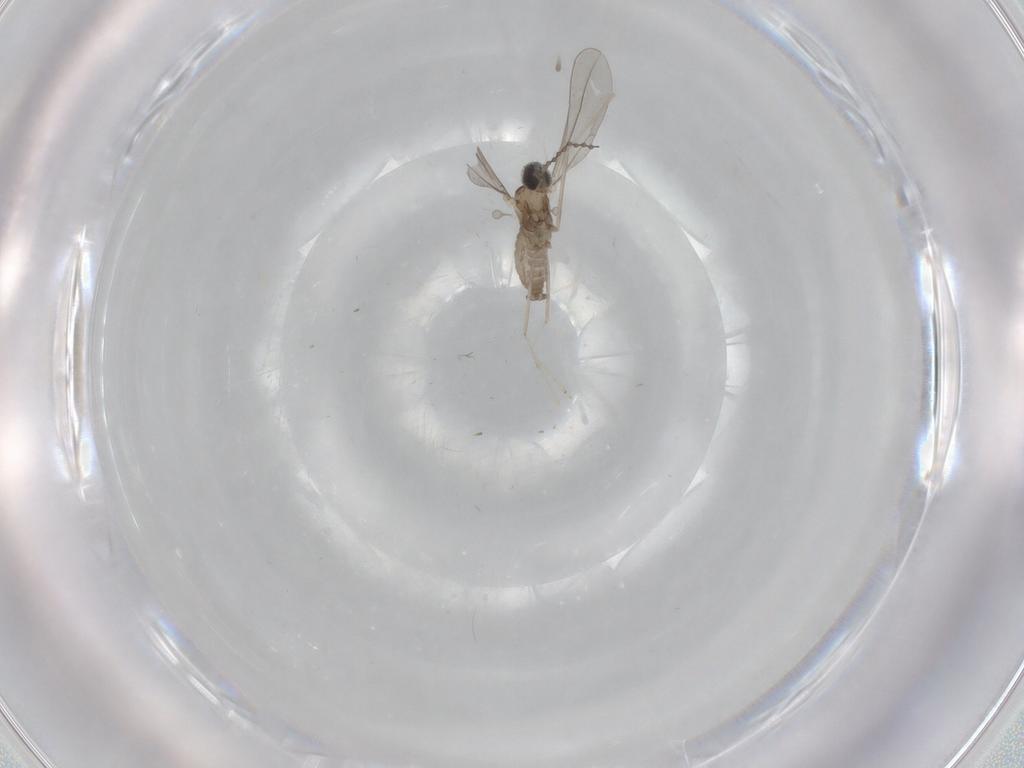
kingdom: Animalia
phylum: Arthropoda
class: Insecta
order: Diptera
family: Cecidomyiidae
